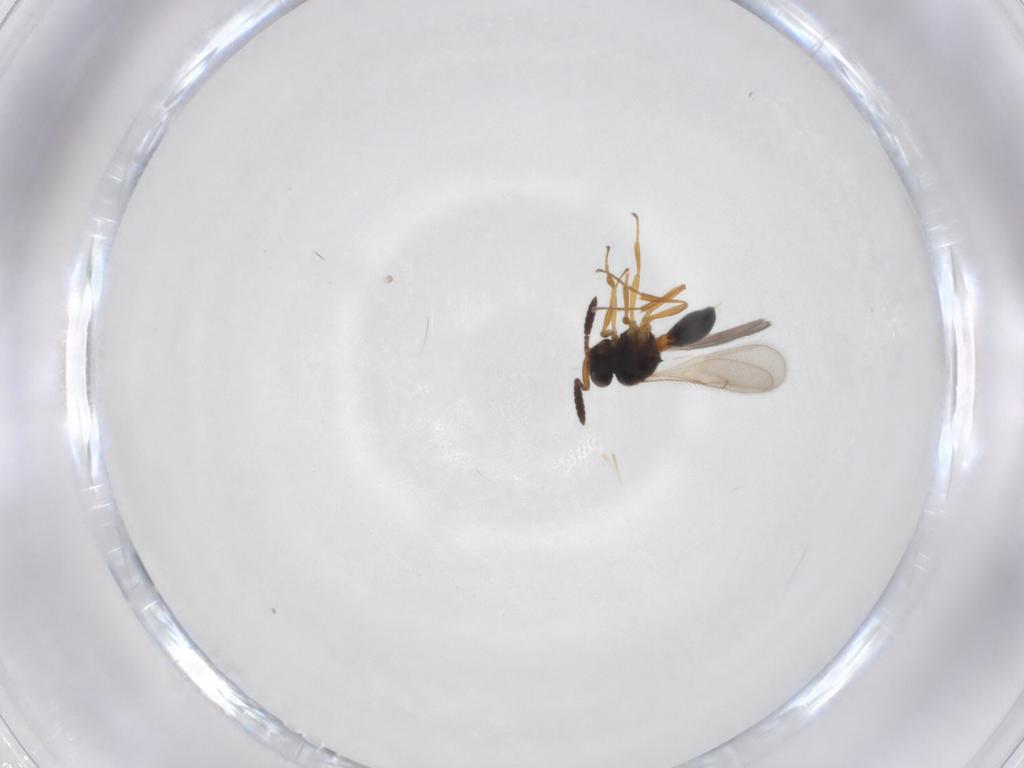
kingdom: Animalia
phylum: Arthropoda
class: Insecta
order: Hymenoptera
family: Scelionidae
